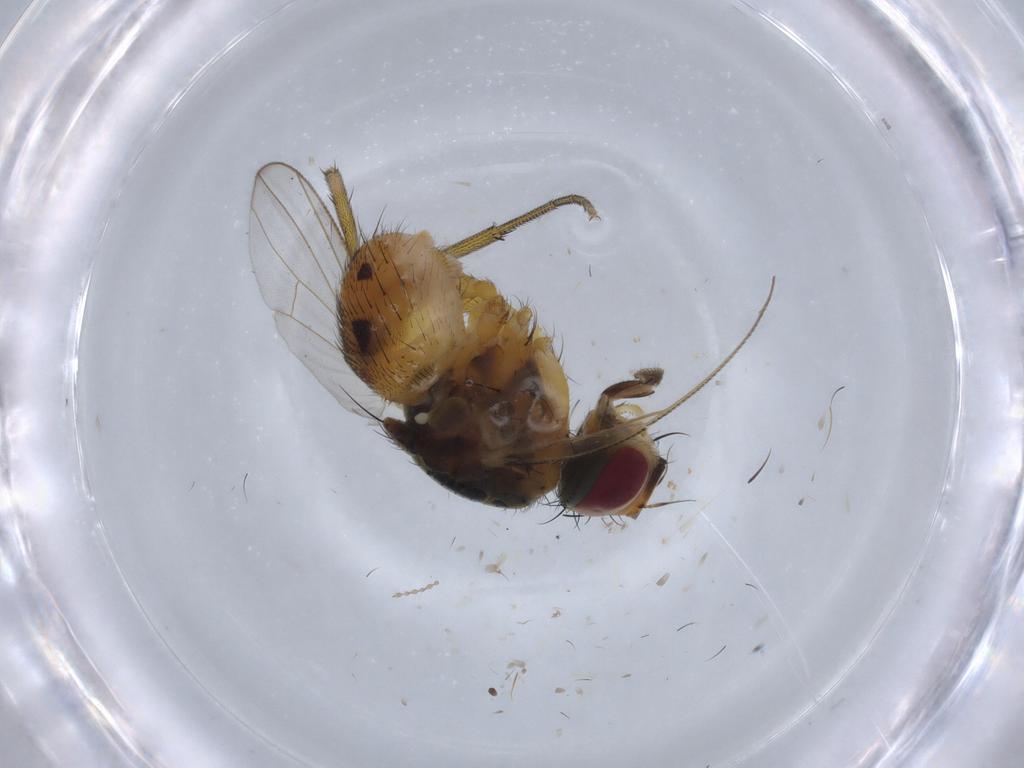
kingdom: Animalia
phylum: Arthropoda
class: Insecta
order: Diptera
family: Muscidae
